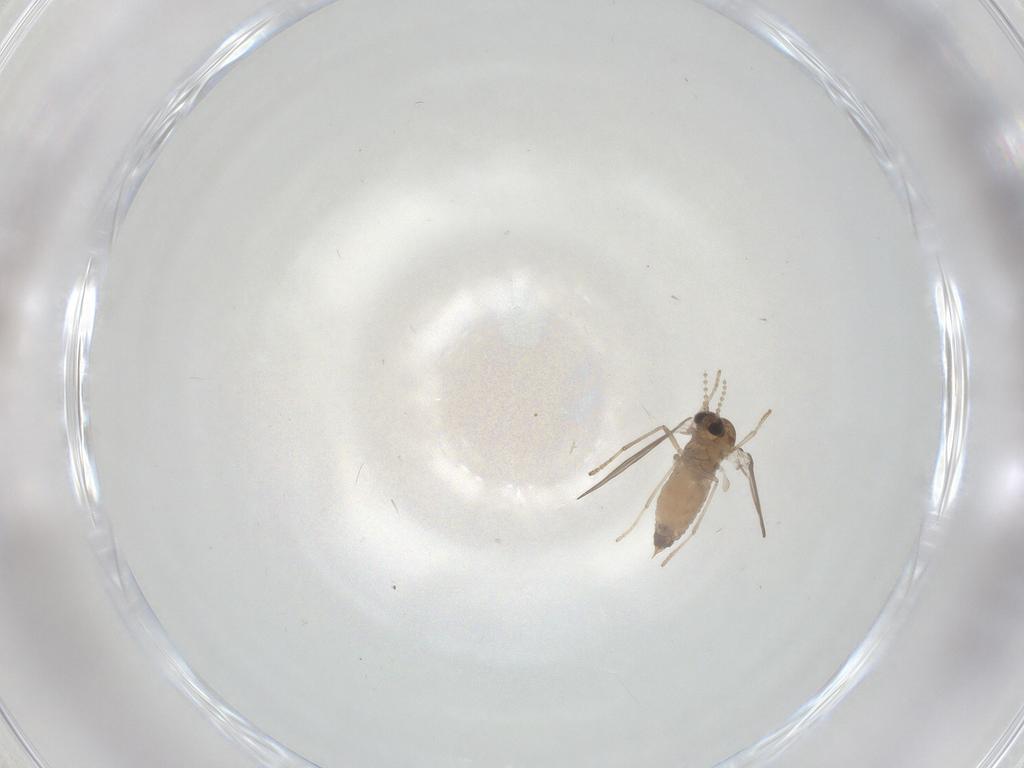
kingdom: Animalia
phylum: Arthropoda
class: Insecta
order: Diptera
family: Psychodidae
